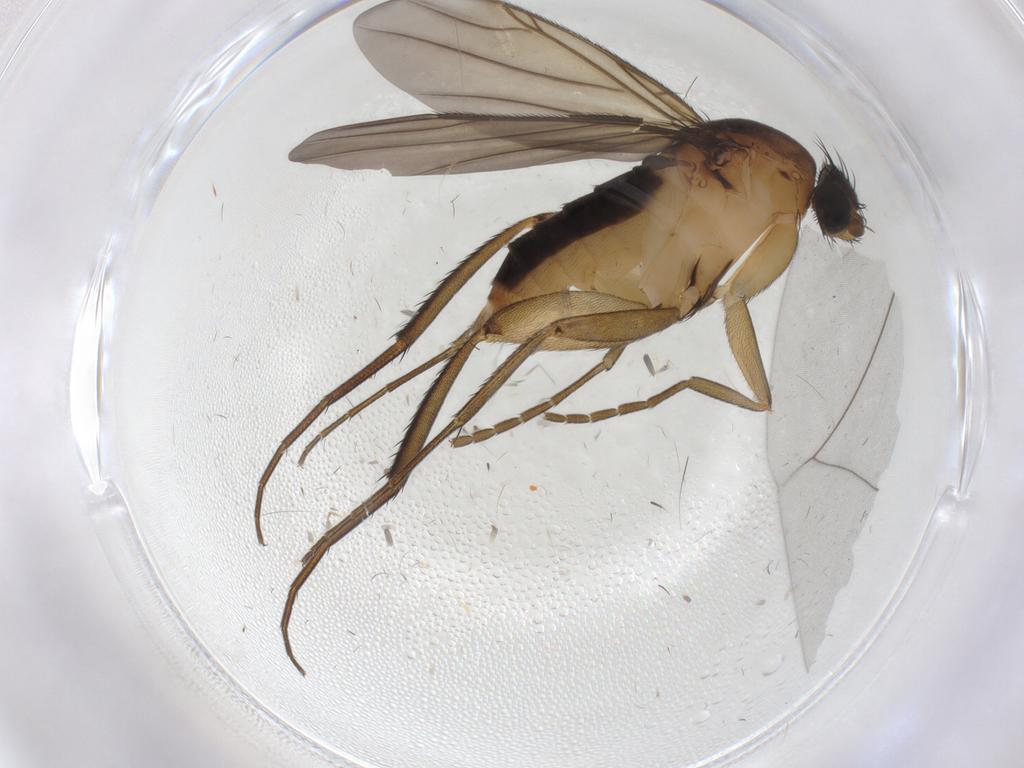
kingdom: Animalia
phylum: Arthropoda
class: Insecta
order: Diptera
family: Phoridae
